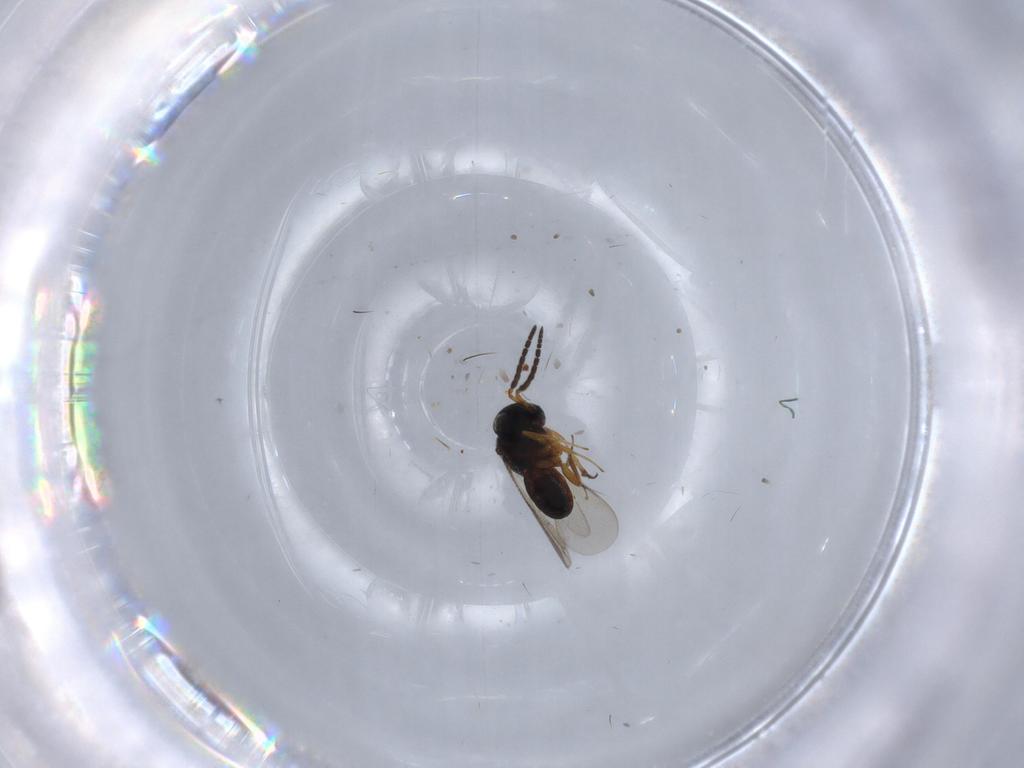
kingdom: Animalia
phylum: Arthropoda
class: Insecta
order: Hymenoptera
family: Scelionidae
